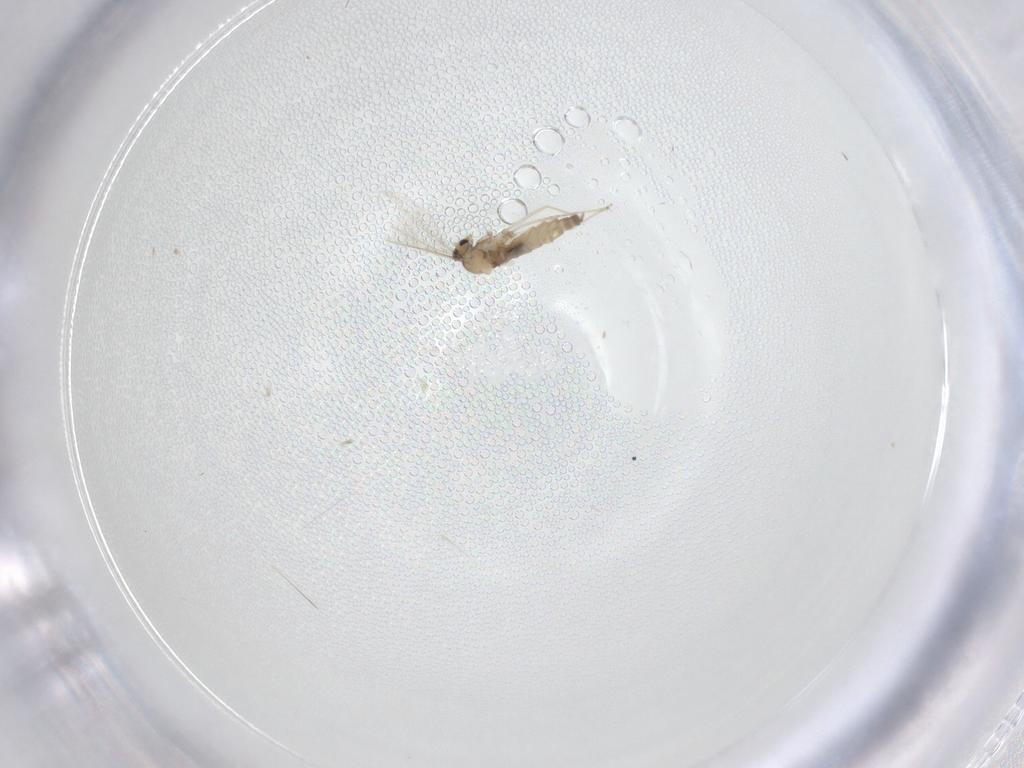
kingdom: Animalia
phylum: Arthropoda
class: Insecta
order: Diptera
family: Cecidomyiidae
